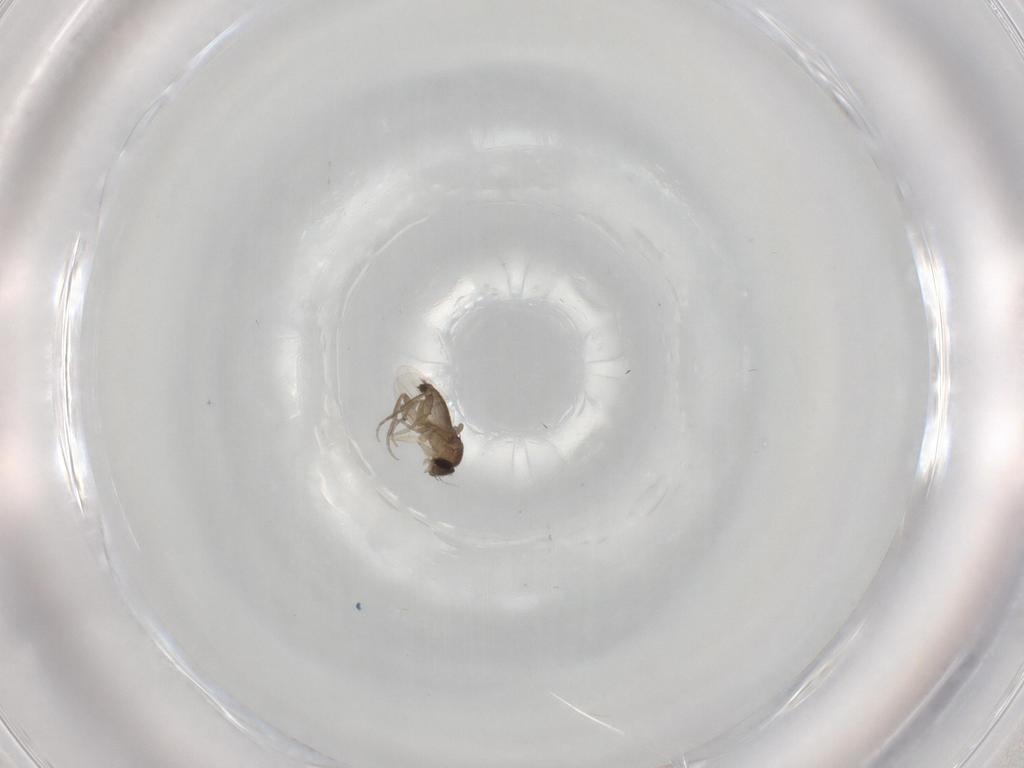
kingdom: Animalia
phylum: Arthropoda
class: Insecta
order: Diptera
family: Phoridae
